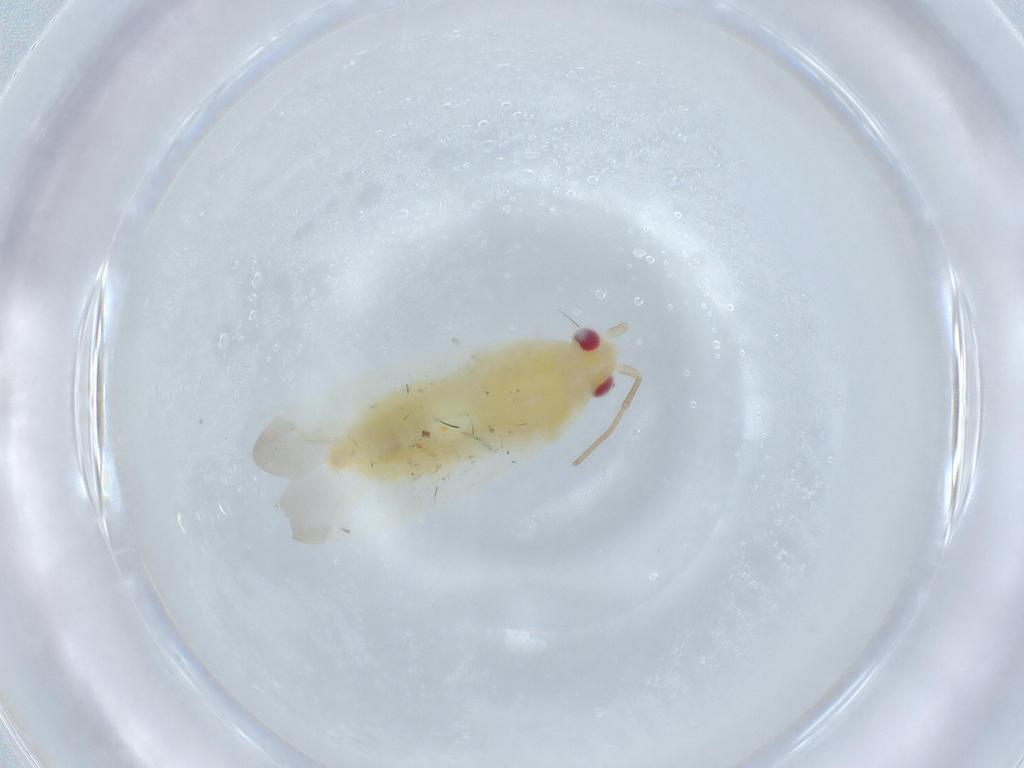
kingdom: Animalia
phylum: Arthropoda
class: Insecta
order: Hemiptera
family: Miridae
